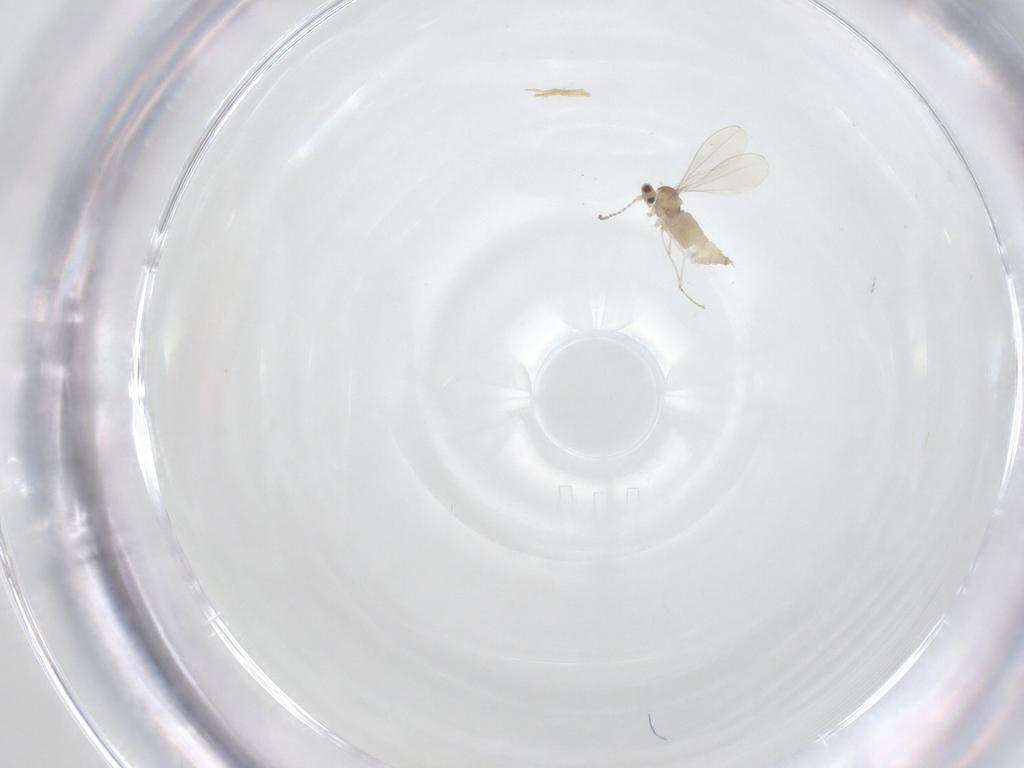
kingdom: Animalia
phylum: Arthropoda
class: Insecta
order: Diptera
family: Cecidomyiidae
